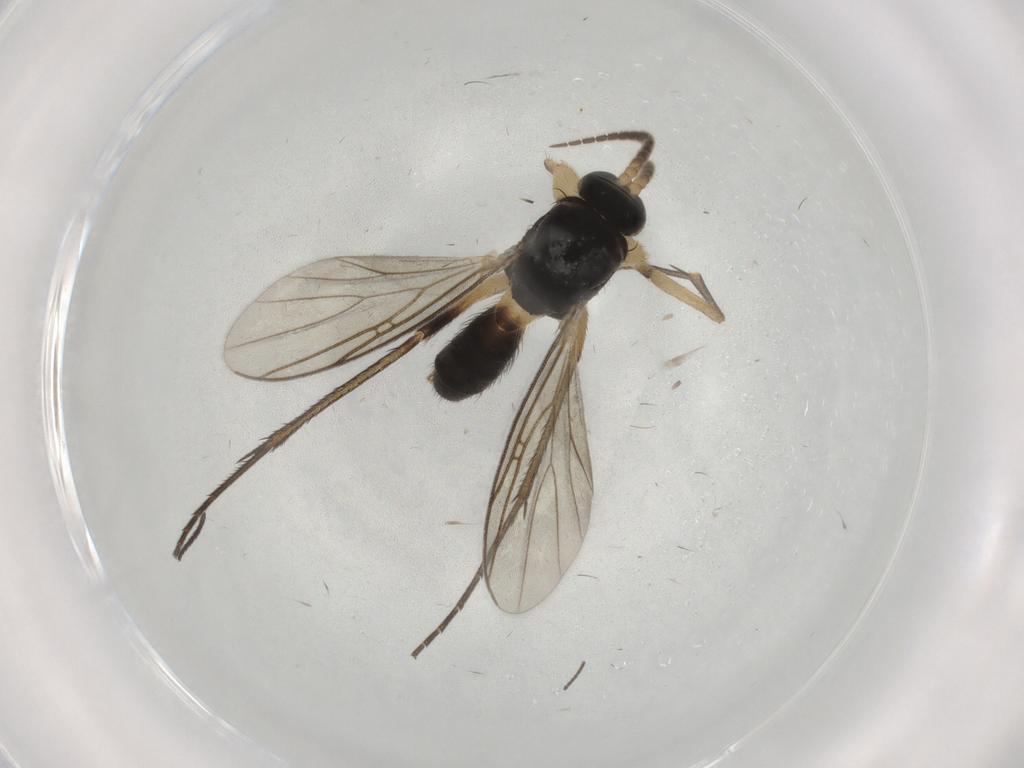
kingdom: Animalia
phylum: Arthropoda
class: Insecta
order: Diptera
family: Mycetophilidae
